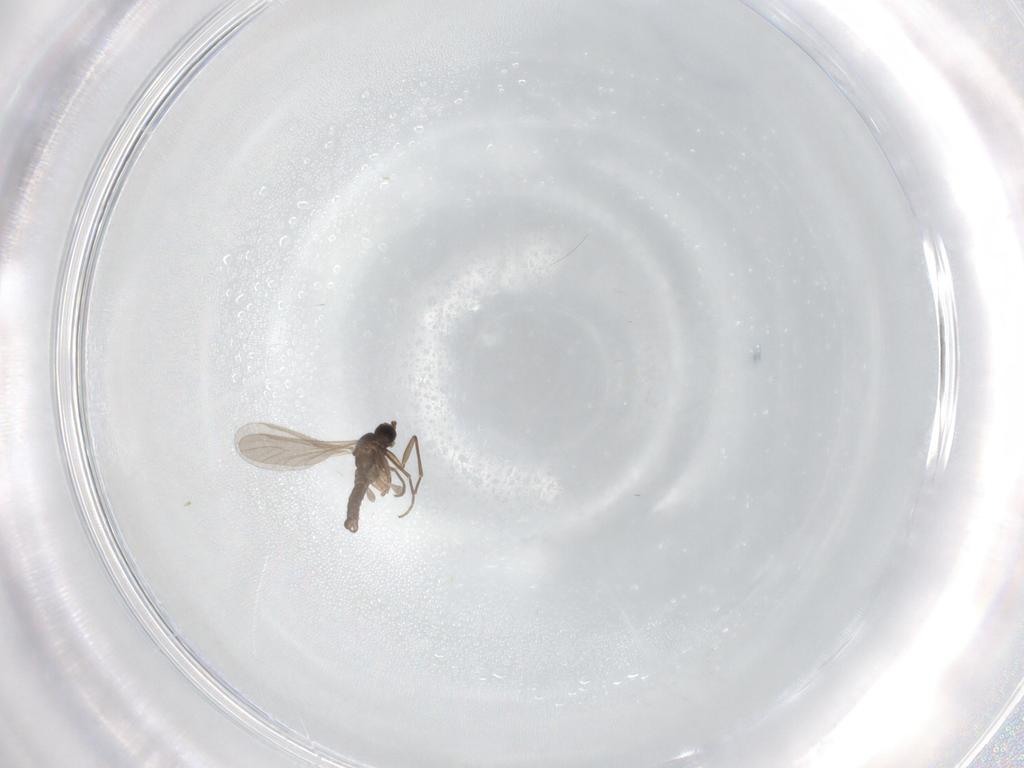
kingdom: Animalia
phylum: Arthropoda
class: Insecta
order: Diptera
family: Sciaridae
